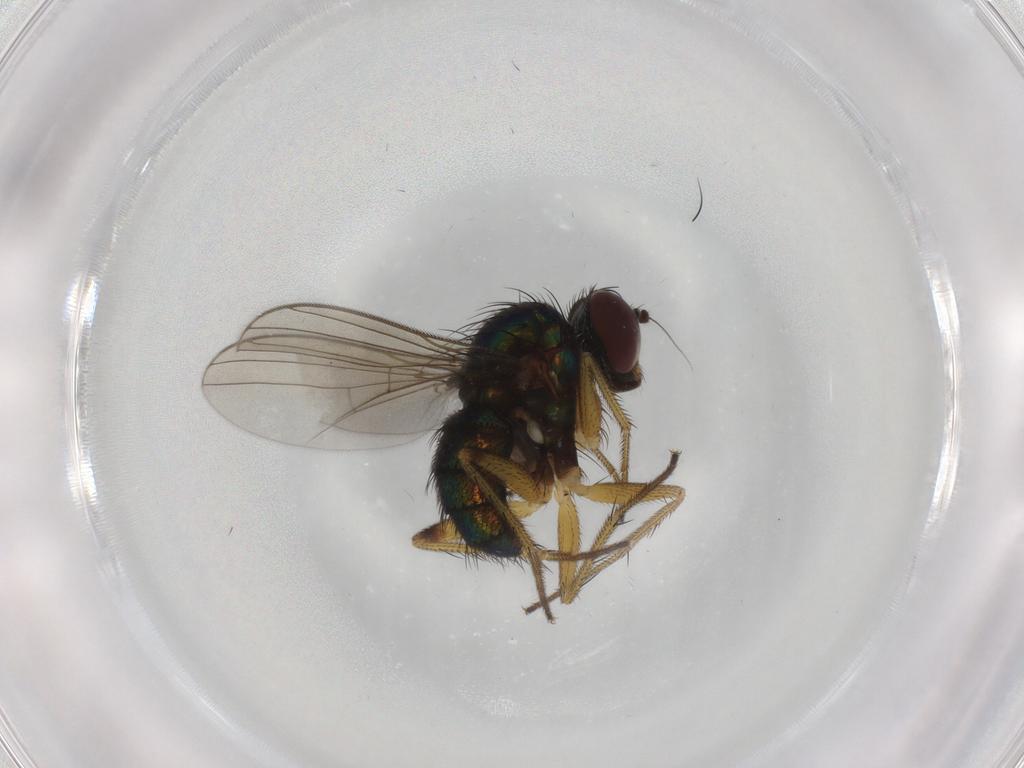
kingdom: Animalia
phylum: Arthropoda
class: Insecta
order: Diptera
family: Dolichopodidae
